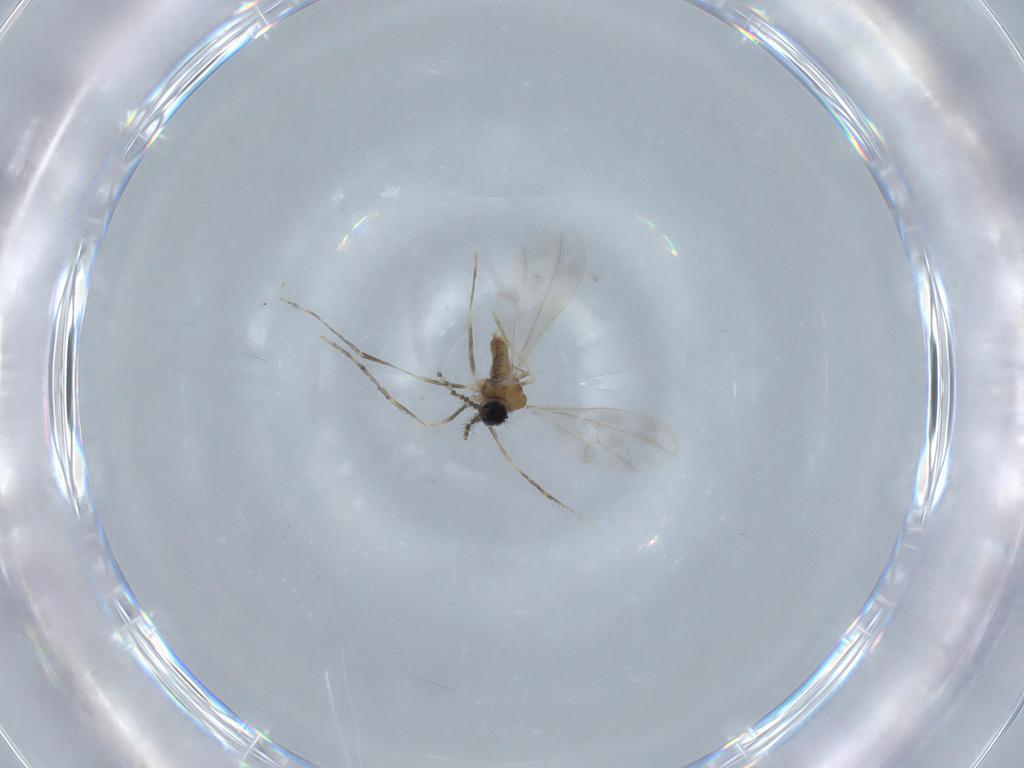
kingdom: Animalia
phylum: Arthropoda
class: Insecta
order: Diptera
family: Cecidomyiidae
